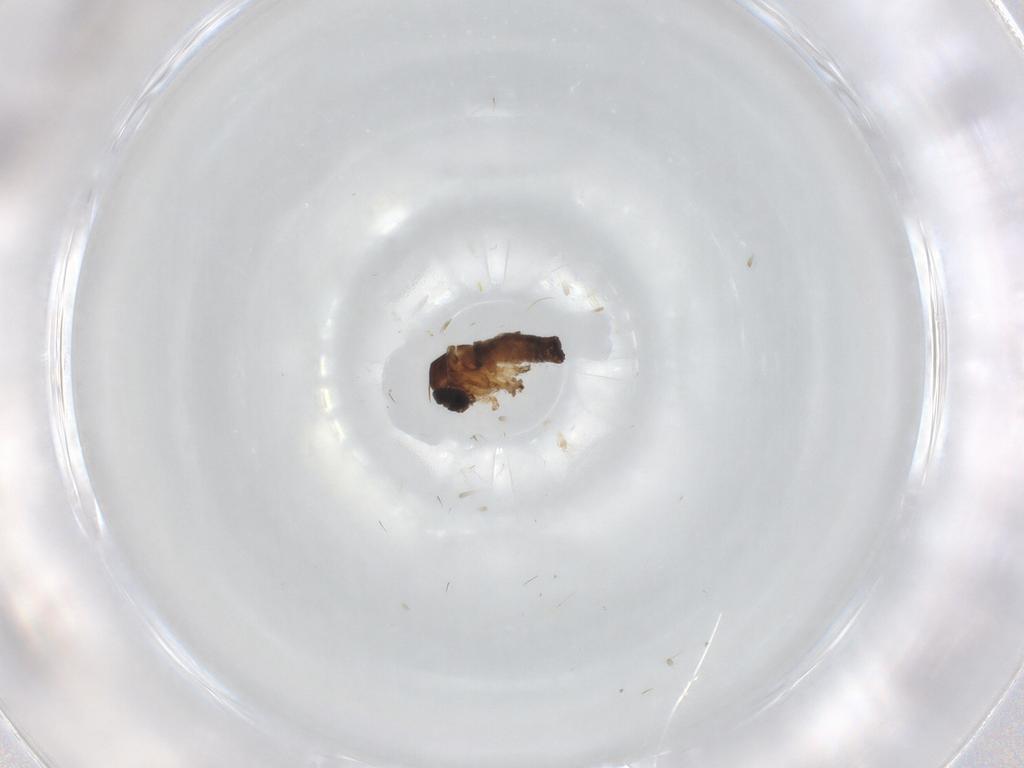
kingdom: Animalia
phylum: Arthropoda
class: Insecta
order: Diptera
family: Sciaridae
